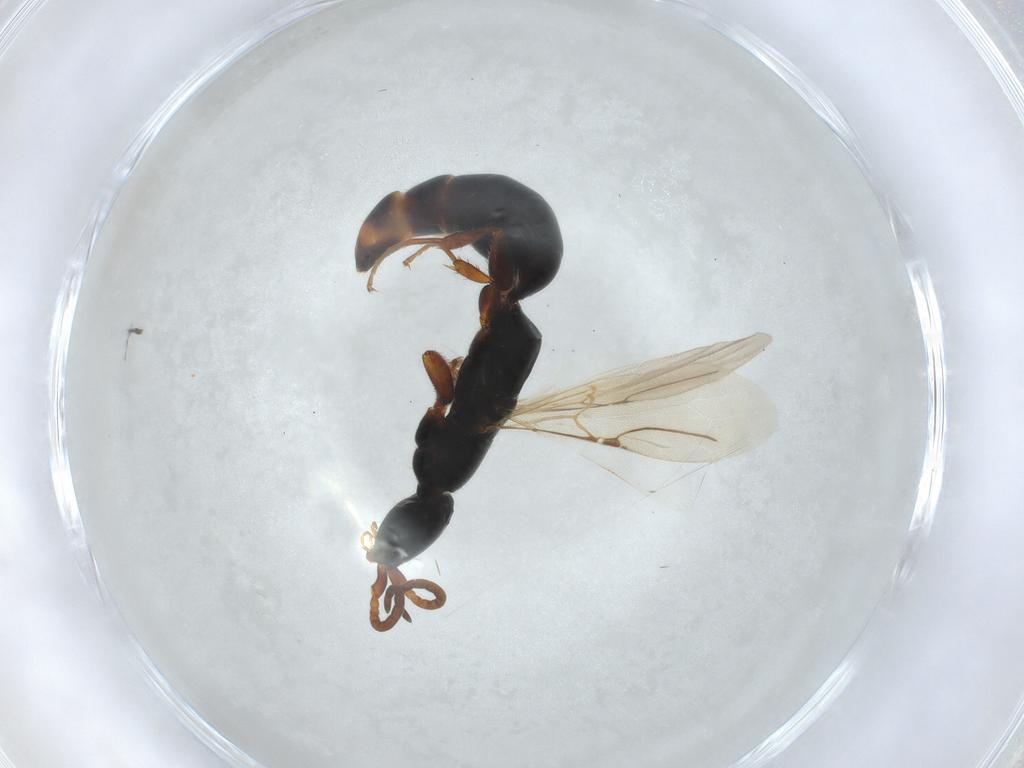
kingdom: Animalia
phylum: Arthropoda
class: Insecta
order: Hymenoptera
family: Bethylidae
